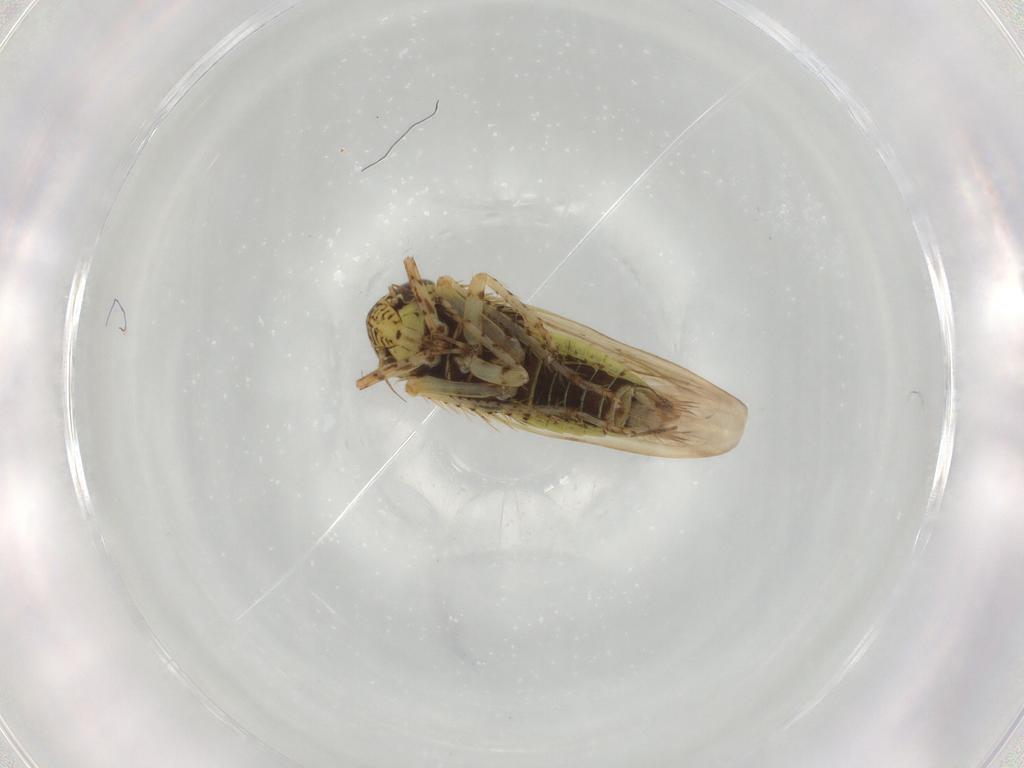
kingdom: Animalia
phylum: Arthropoda
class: Insecta
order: Hemiptera
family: Cicadellidae
